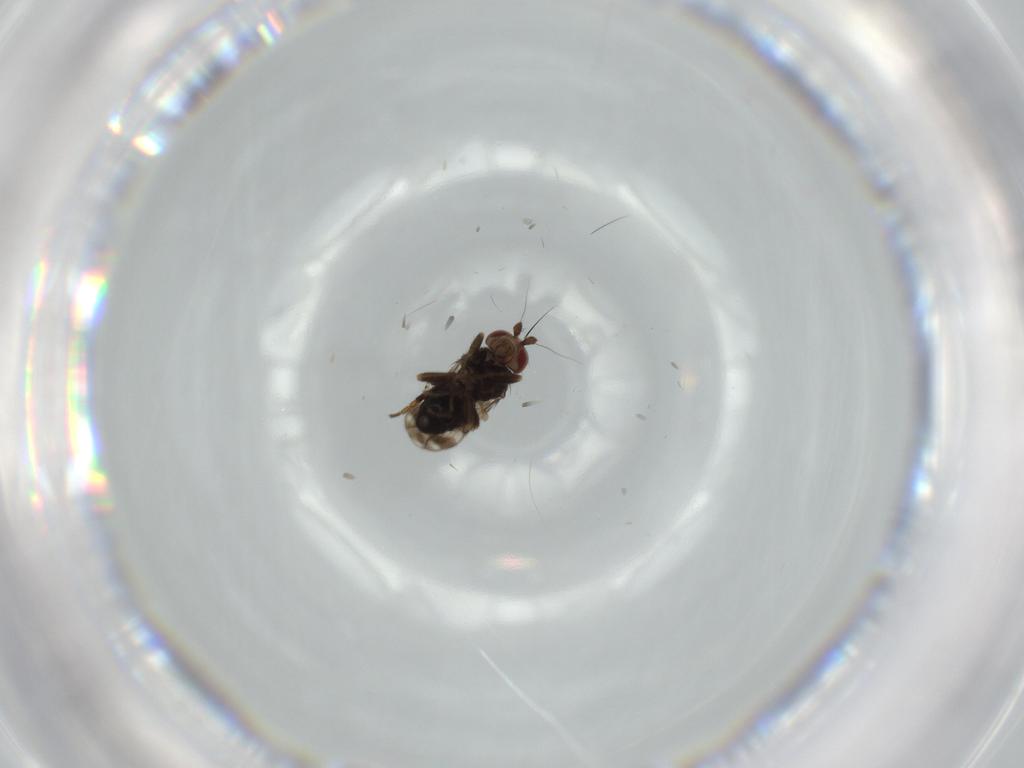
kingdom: Animalia
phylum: Arthropoda
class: Insecta
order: Diptera
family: Sphaeroceridae
